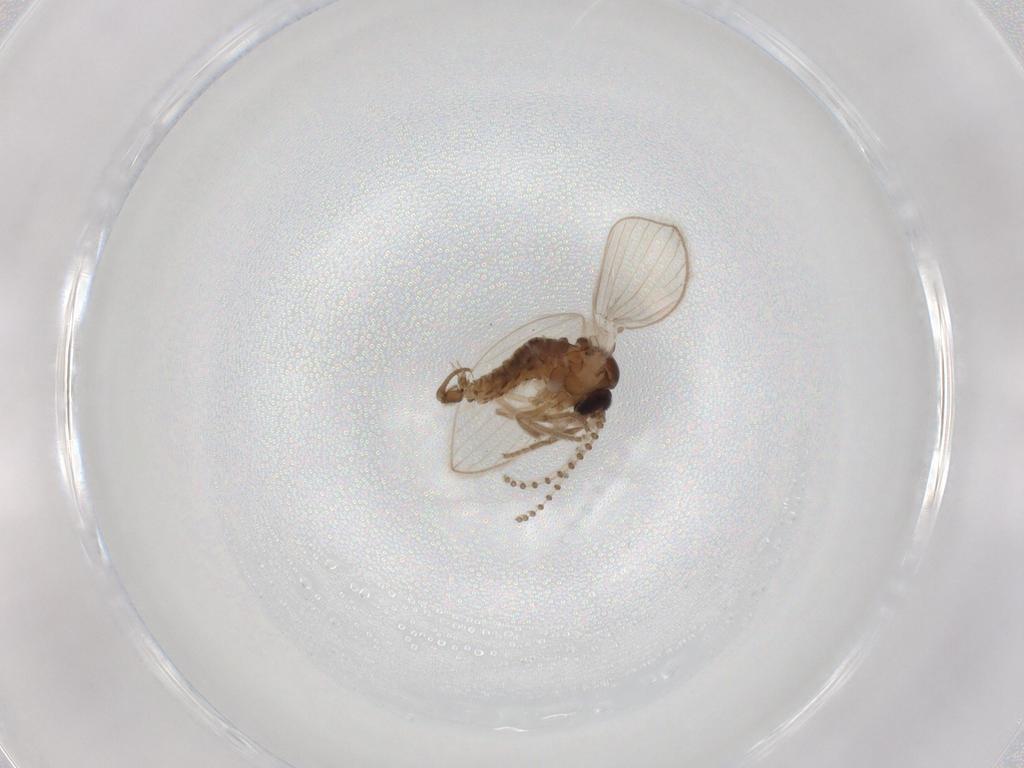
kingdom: Animalia
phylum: Arthropoda
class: Insecta
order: Diptera
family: Psychodidae
